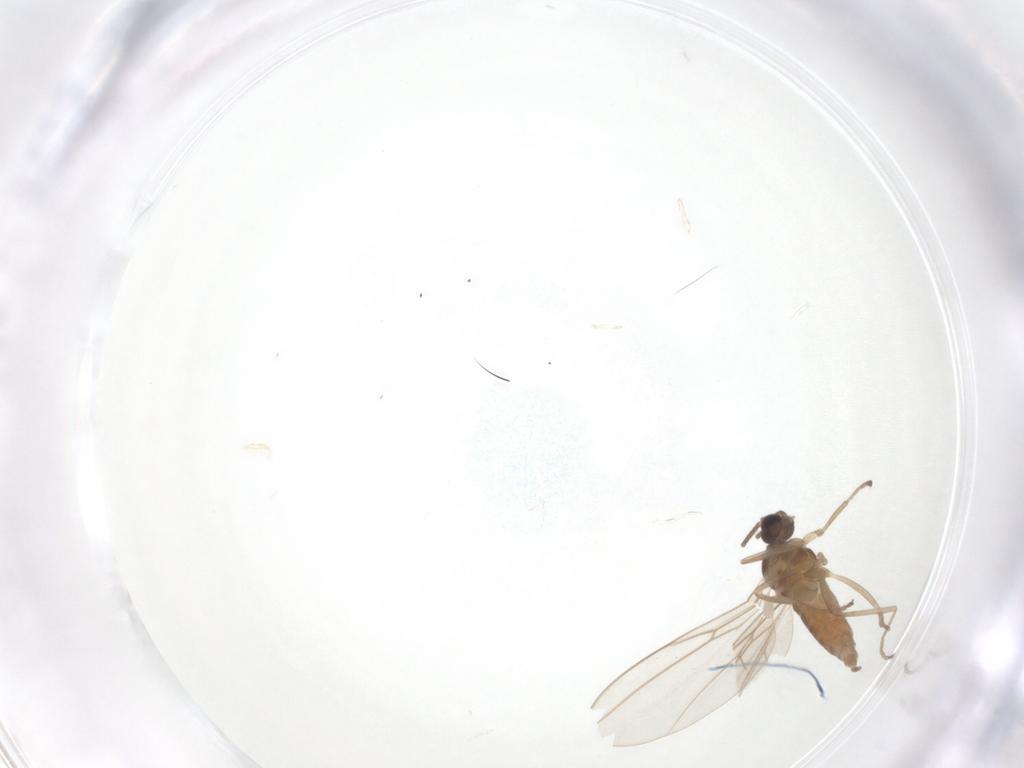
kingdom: Animalia
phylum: Arthropoda
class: Insecta
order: Diptera
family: Cecidomyiidae
